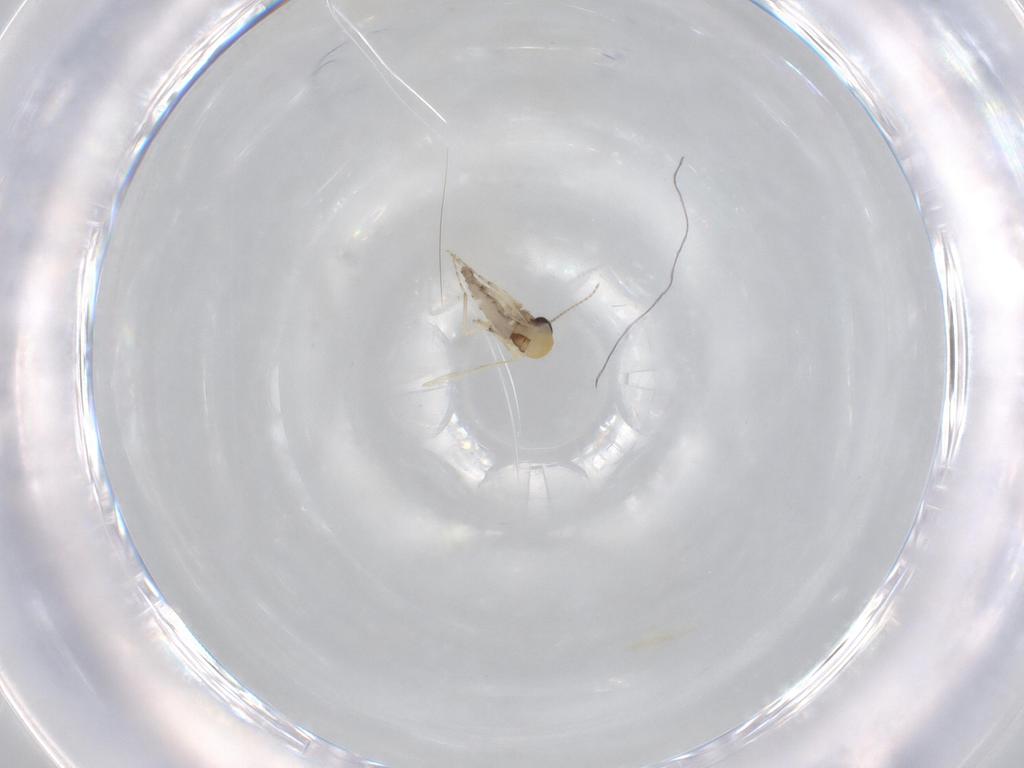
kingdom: Animalia
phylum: Arthropoda
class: Insecta
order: Diptera
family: Ceratopogonidae
